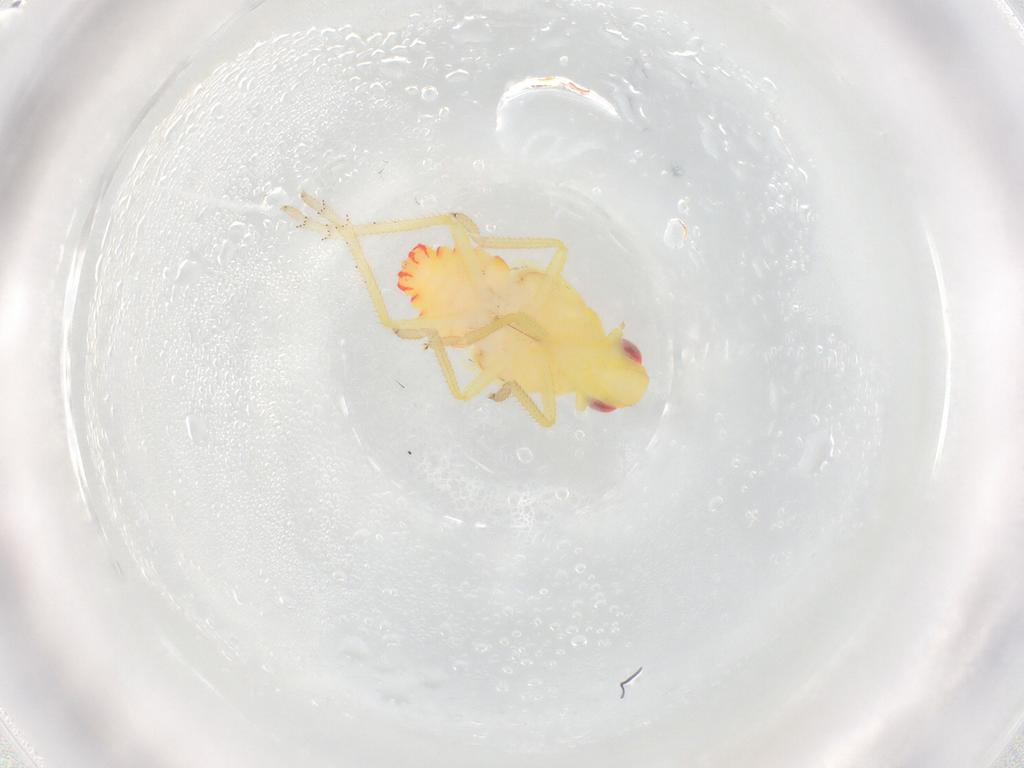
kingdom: Animalia
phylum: Arthropoda
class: Insecta
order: Hemiptera
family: Tropiduchidae
